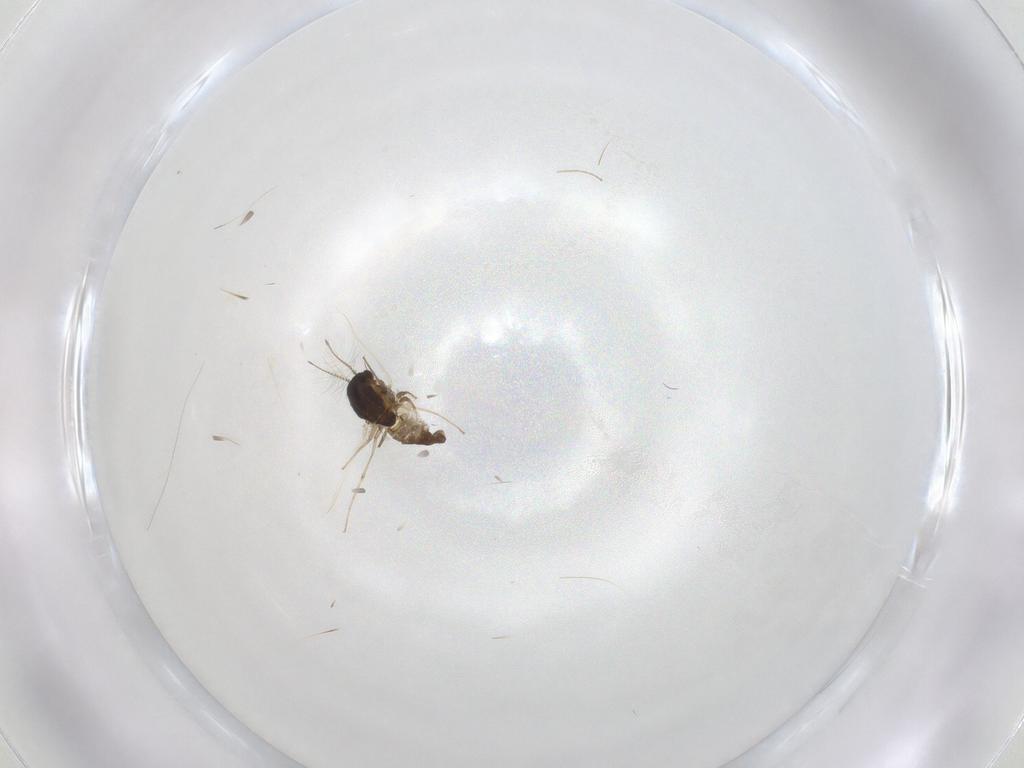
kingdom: Animalia
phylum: Arthropoda
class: Insecta
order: Diptera
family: Chironomidae
